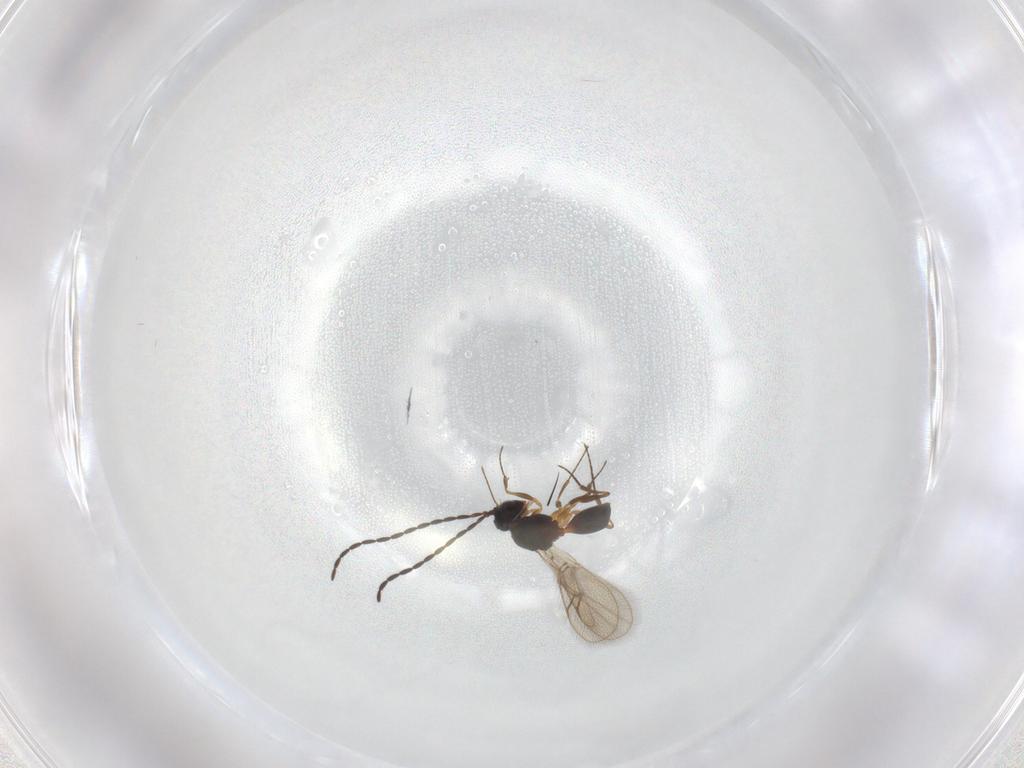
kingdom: Animalia
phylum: Arthropoda
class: Insecta
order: Hymenoptera
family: Figitidae
